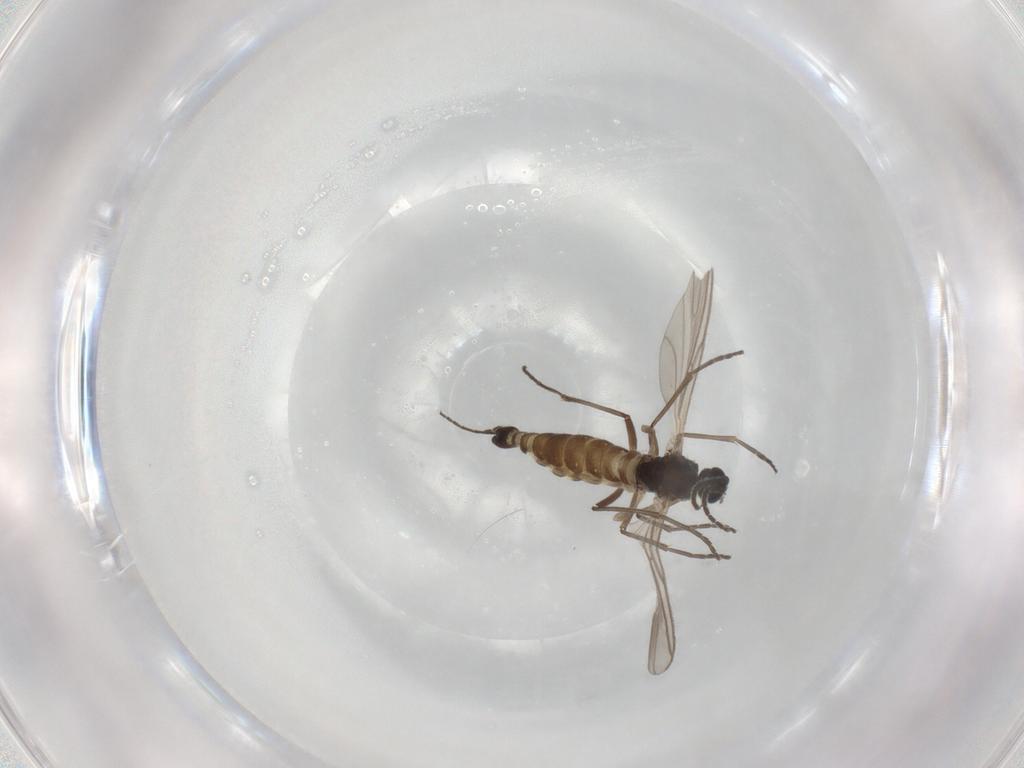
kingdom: Animalia
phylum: Arthropoda
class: Insecta
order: Diptera
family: Sciaridae
